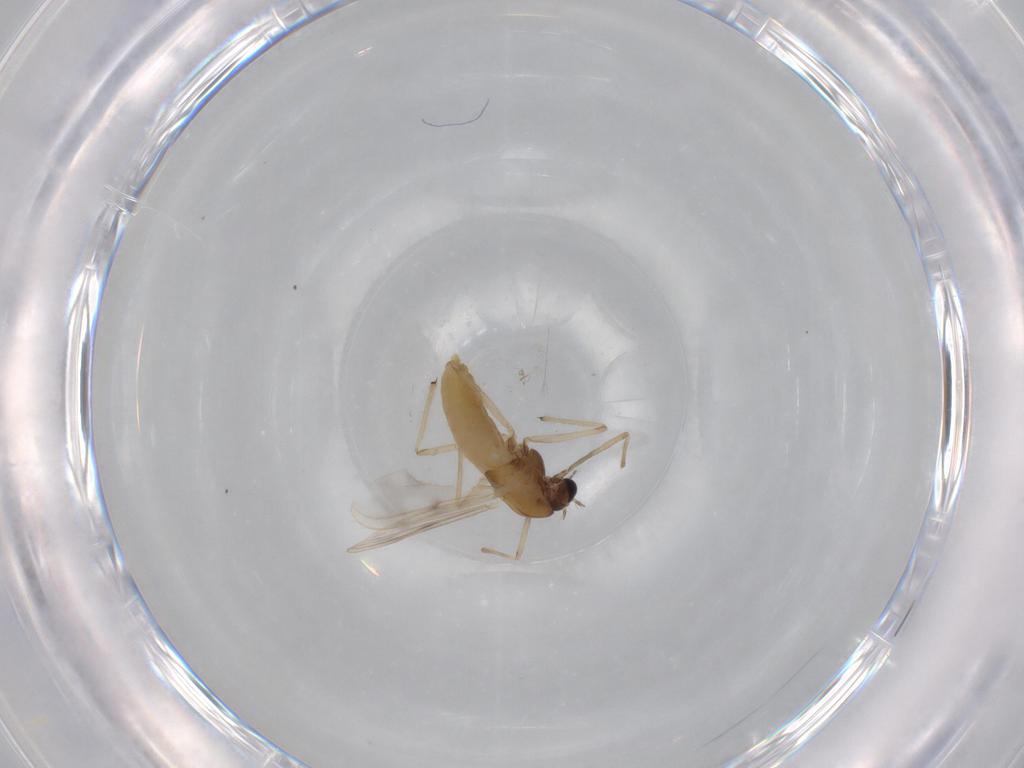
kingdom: Animalia
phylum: Arthropoda
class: Insecta
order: Diptera
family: Chironomidae
